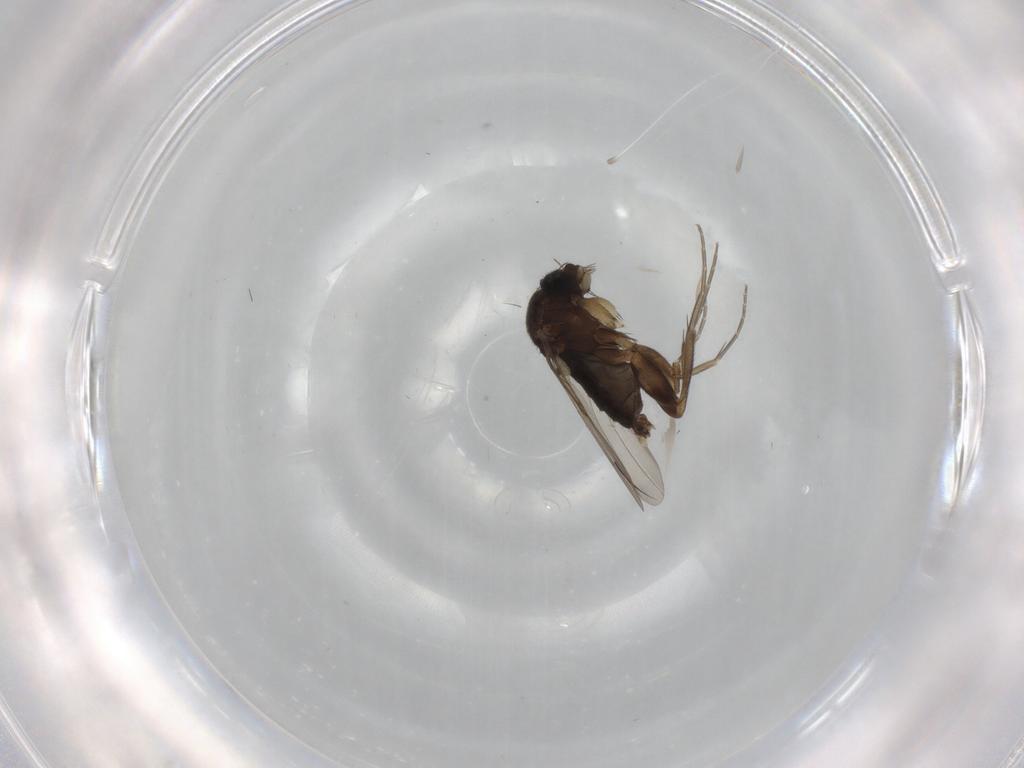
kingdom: Animalia
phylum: Arthropoda
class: Insecta
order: Diptera
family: Phoridae
